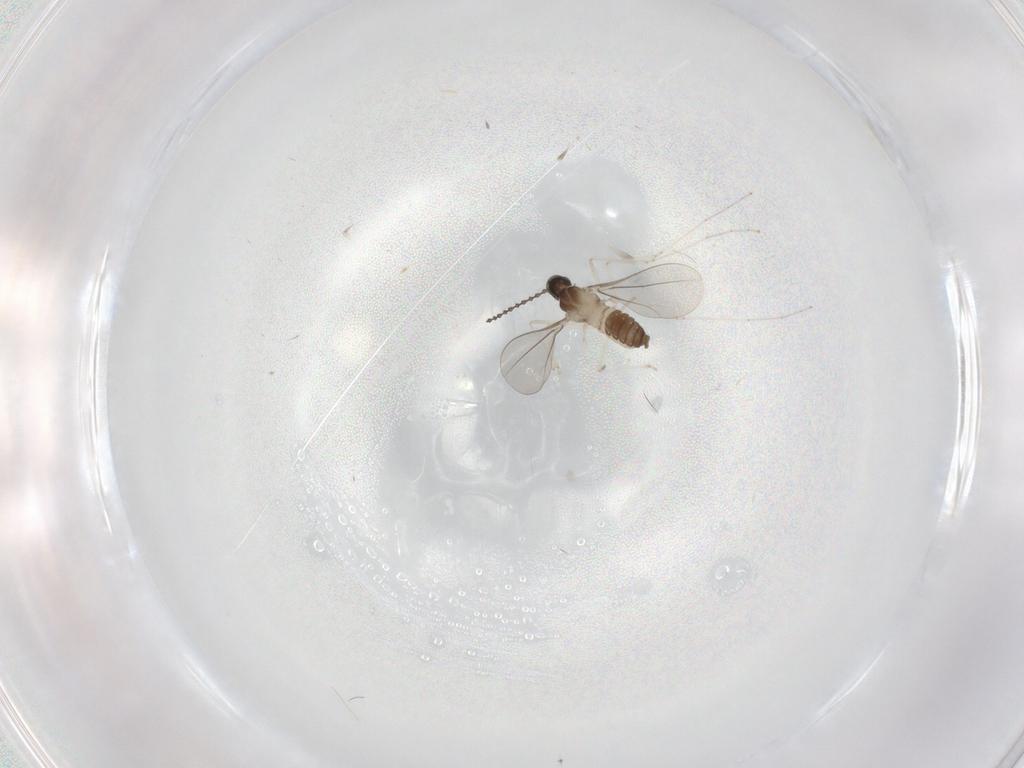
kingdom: Animalia
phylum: Arthropoda
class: Insecta
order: Diptera
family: Cecidomyiidae
